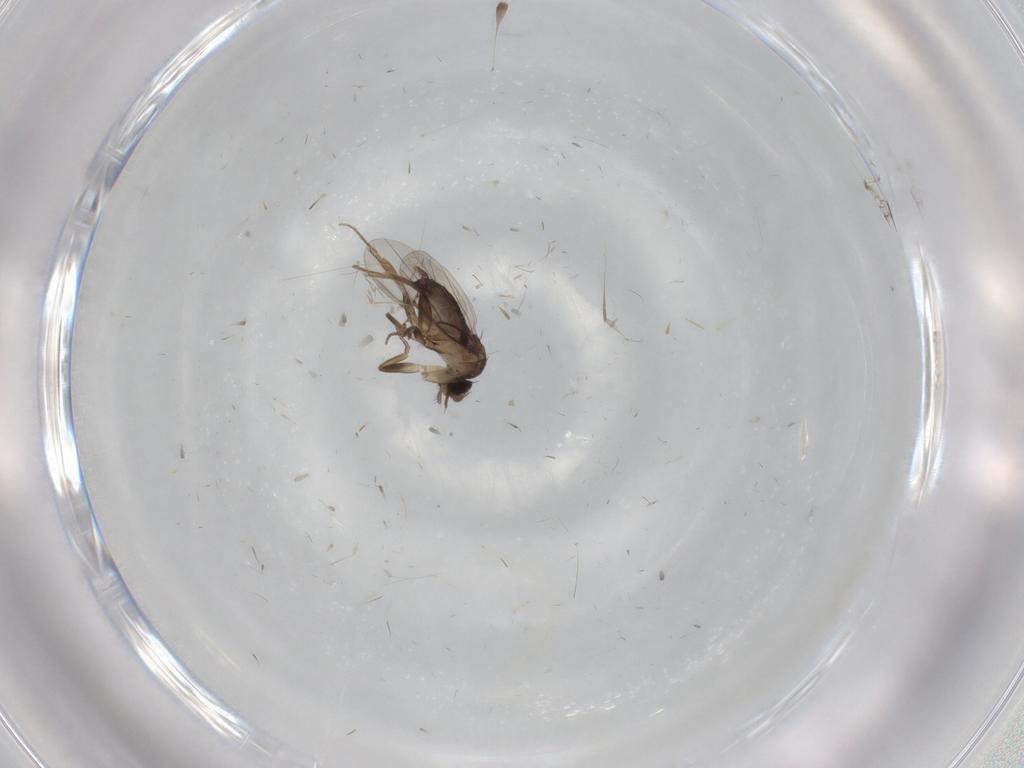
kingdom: Animalia
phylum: Arthropoda
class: Insecta
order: Diptera
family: Phoridae
